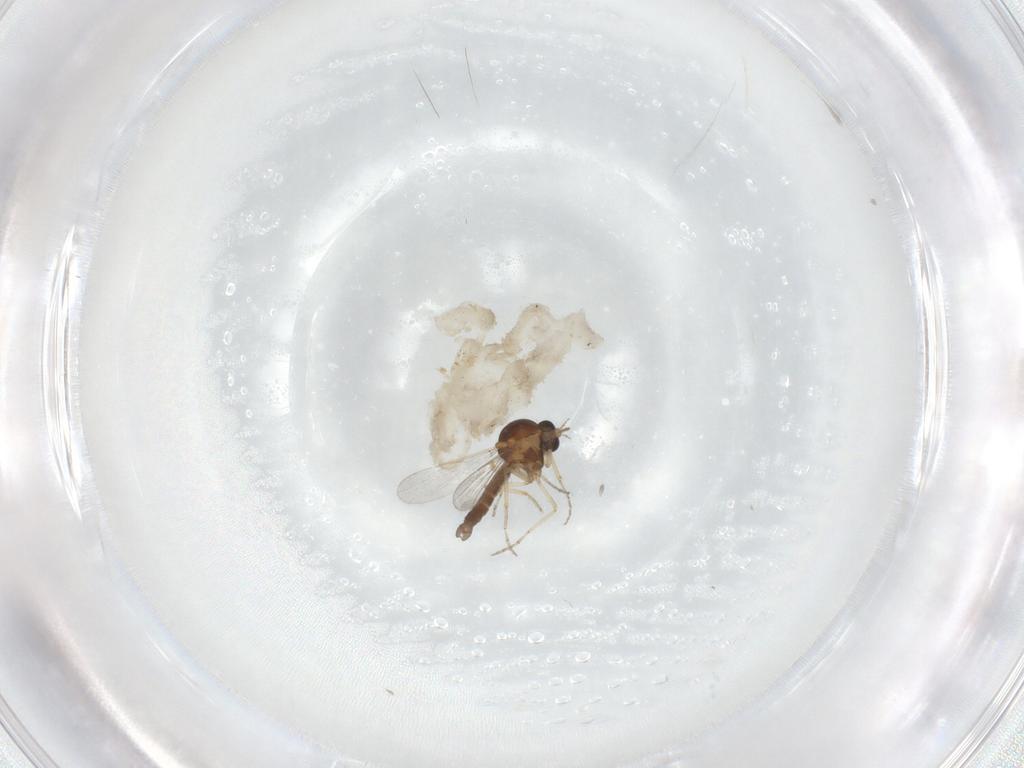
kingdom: Animalia
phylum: Arthropoda
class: Insecta
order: Diptera
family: Culicidae
